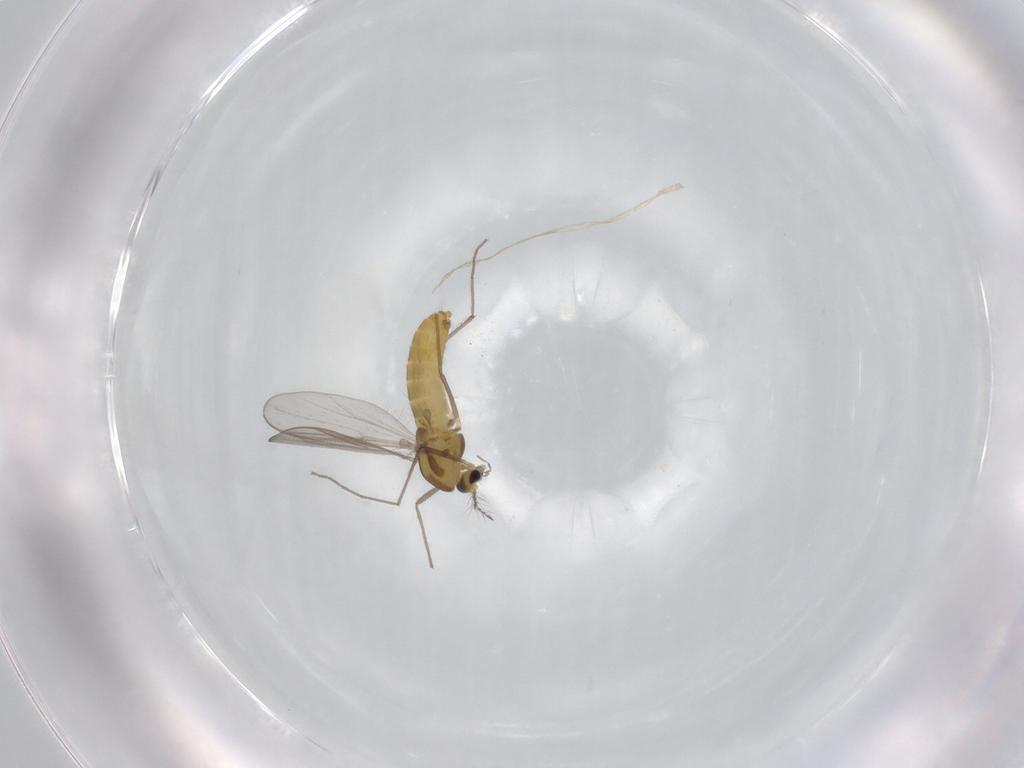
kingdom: Animalia
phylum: Arthropoda
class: Insecta
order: Diptera
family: Chironomidae
